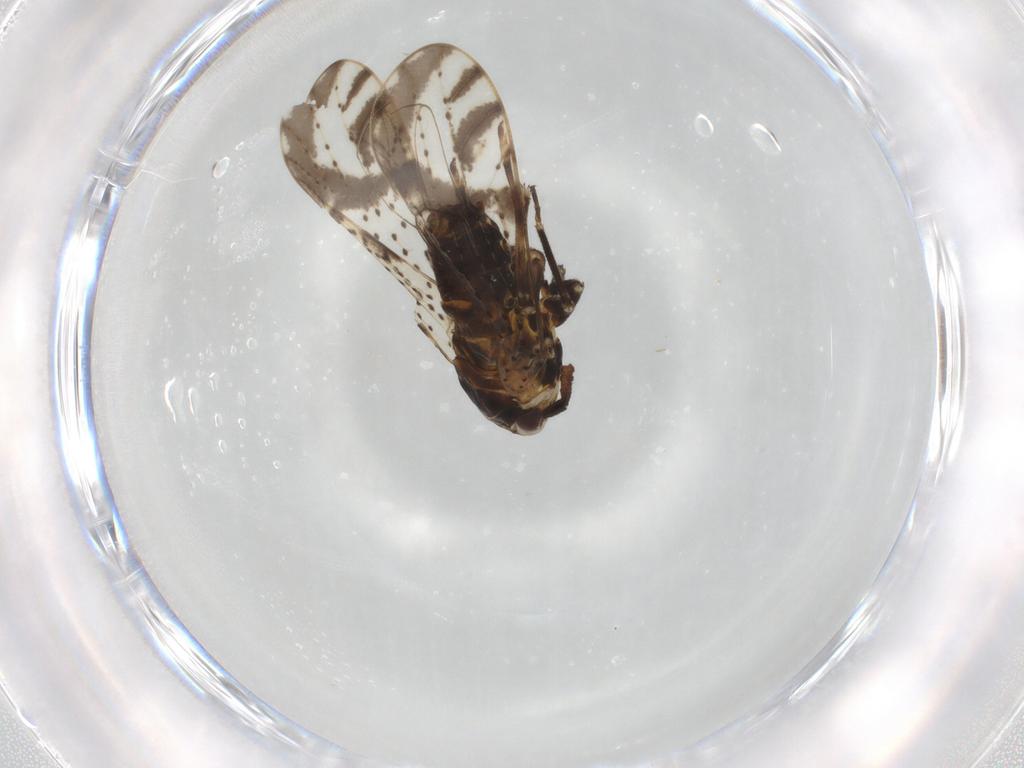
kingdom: Animalia
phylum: Arthropoda
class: Insecta
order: Hemiptera
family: Delphacidae
